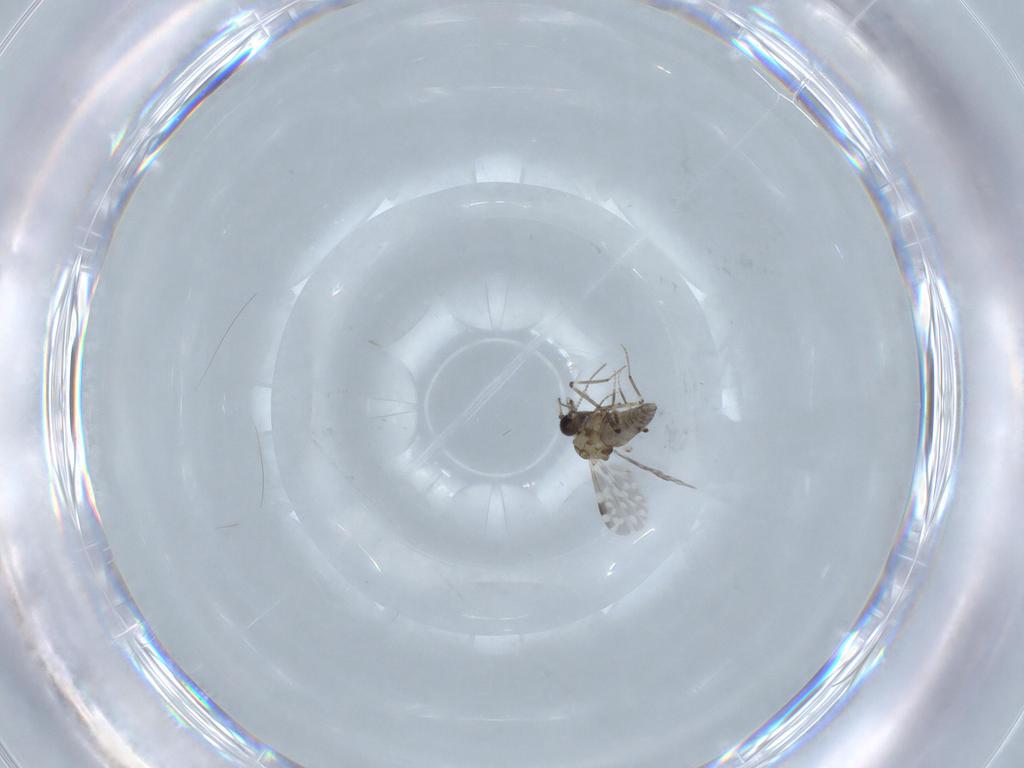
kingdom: Animalia
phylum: Arthropoda
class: Insecta
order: Diptera
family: Ceratopogonidae
